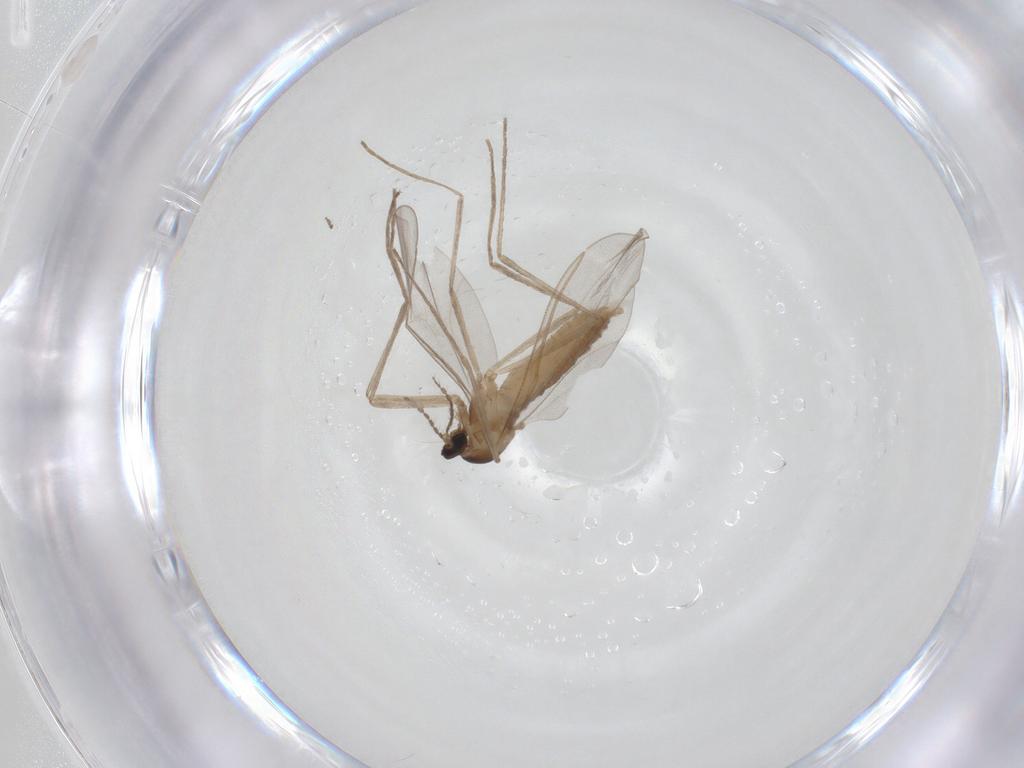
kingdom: Animalia
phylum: Arthropoda
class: Insecta
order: Diptera
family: Cecidomyiidae
